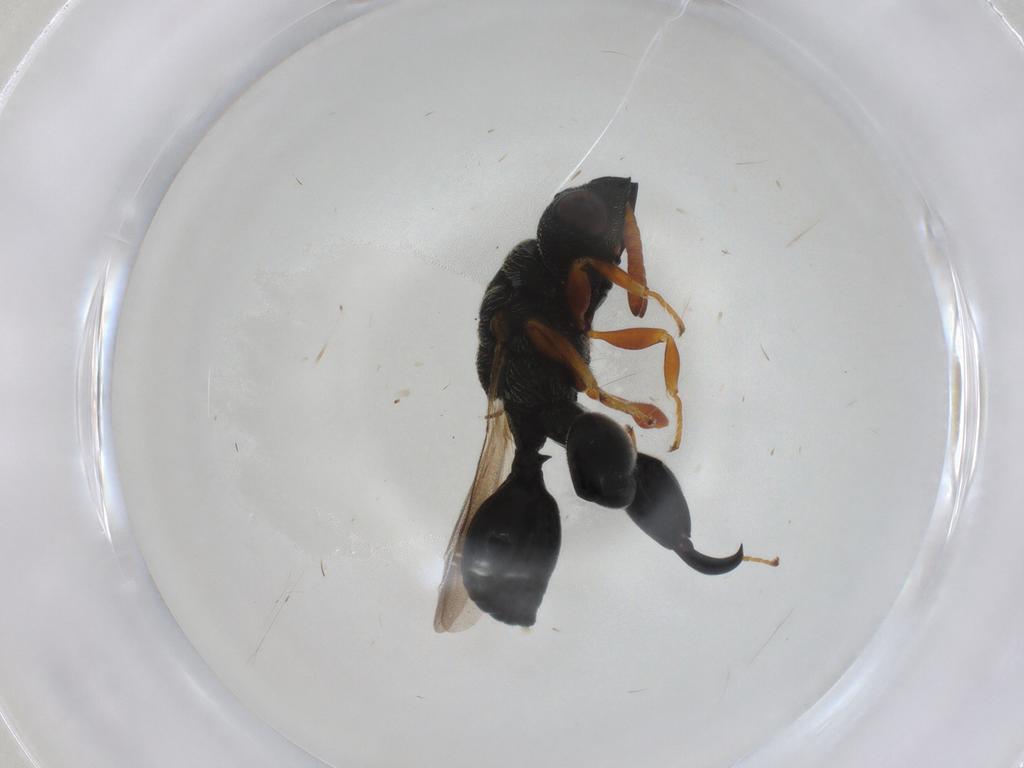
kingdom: Animalia
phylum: Arthropoda
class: Insecta
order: Hymenoptera
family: Chalcididae
